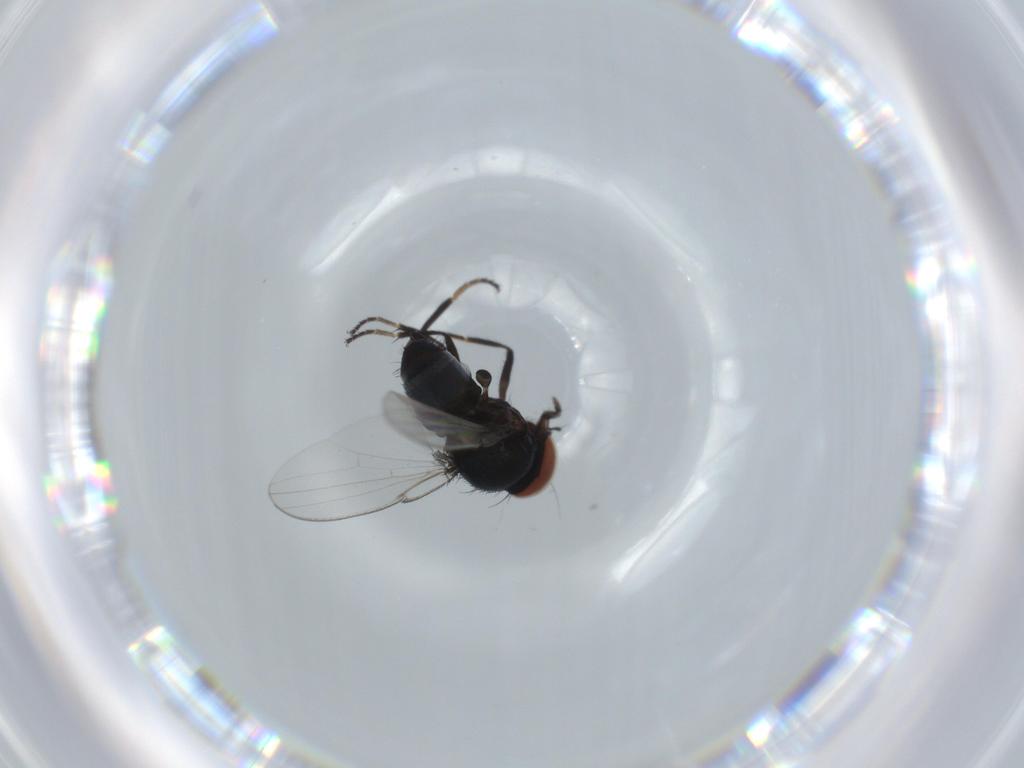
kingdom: Animalia
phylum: Arthropoda
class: Insecta
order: Diptera
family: Milichiidae
